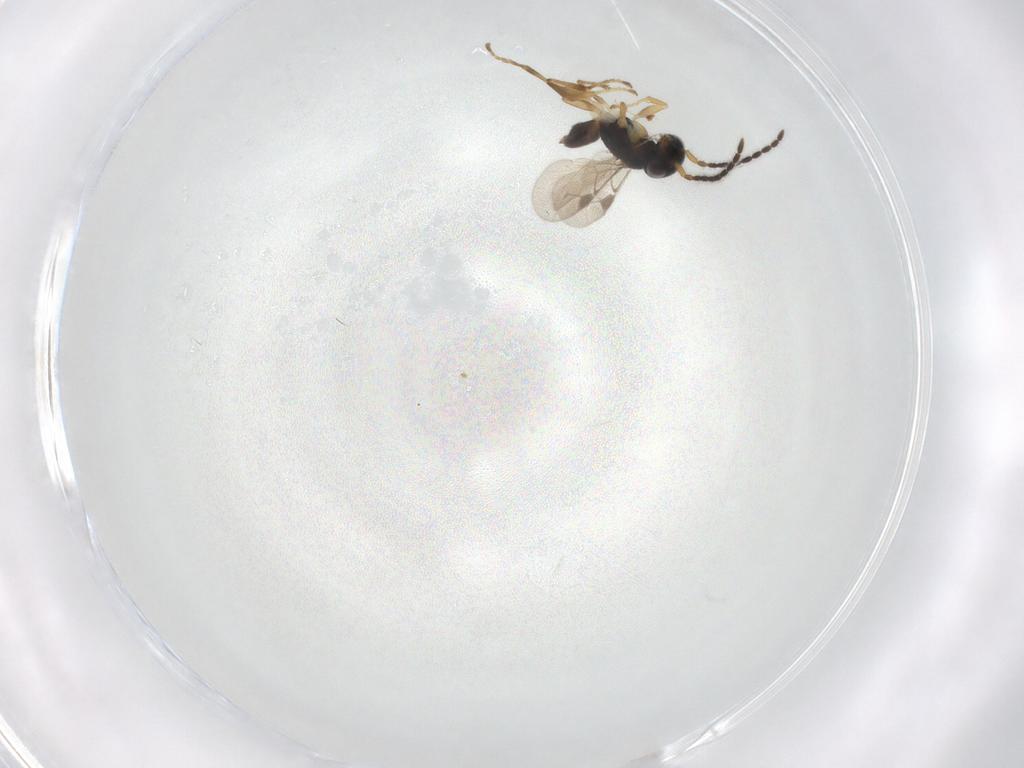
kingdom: Animalia
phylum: Arthropoda
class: Insecta
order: Hymenoptera
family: Dryinidae
